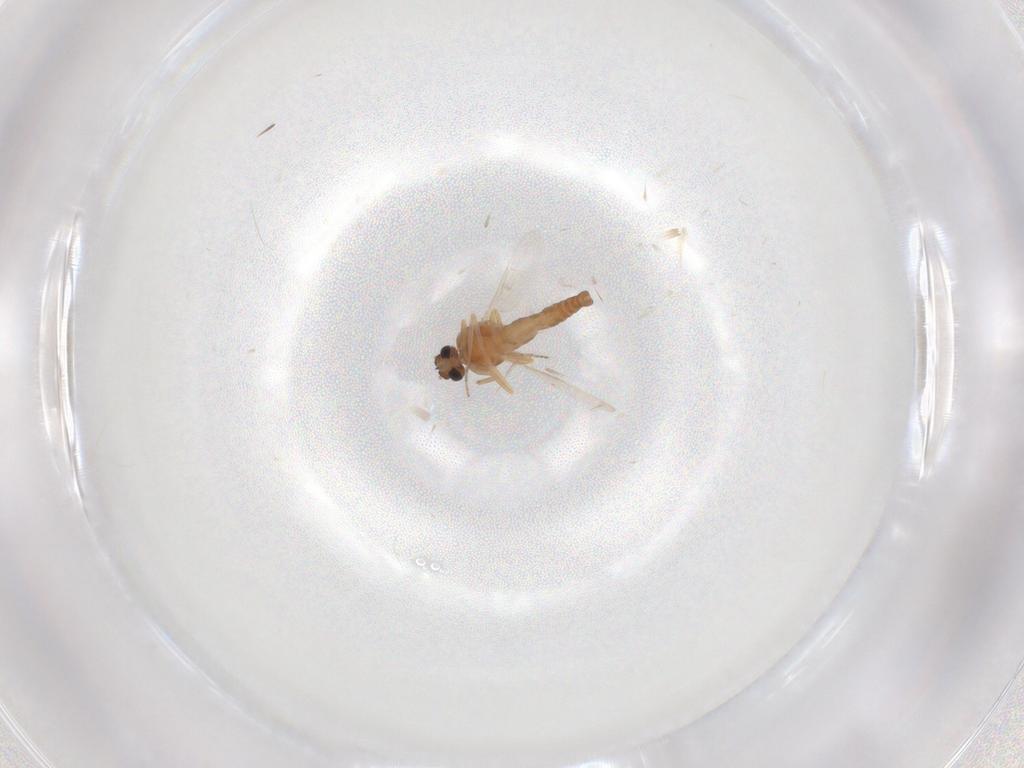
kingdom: Animalia
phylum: Arthropoda
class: Insecta
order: Diptera
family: Ceratopogonidae
